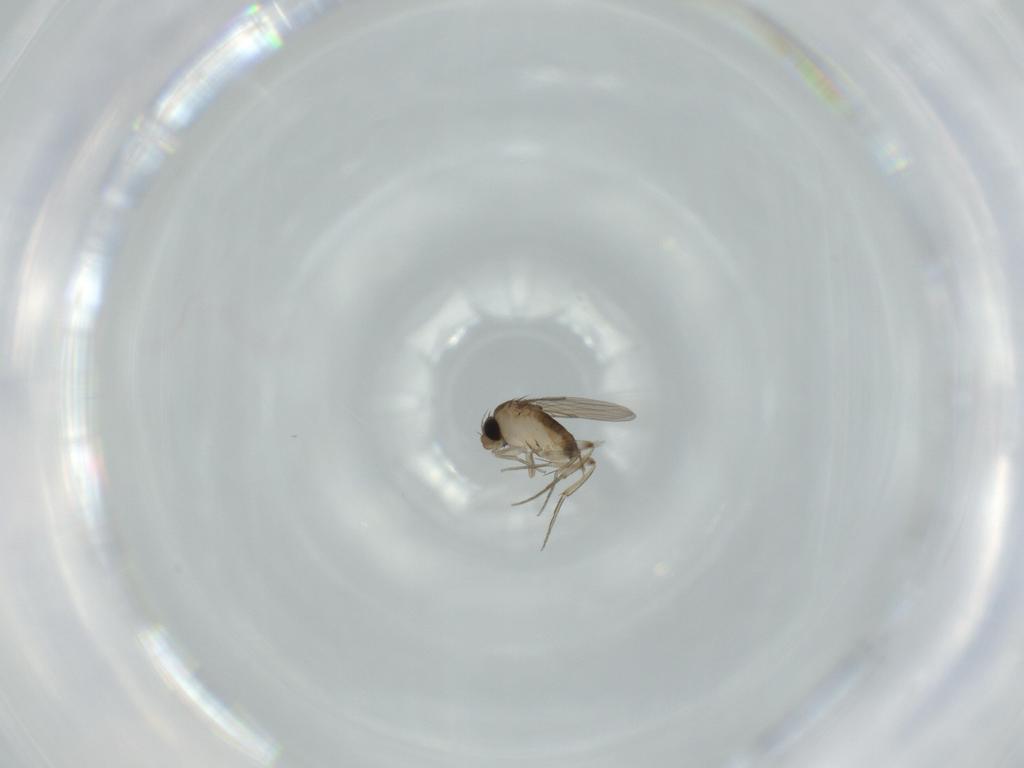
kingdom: Animalia
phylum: Arthropoda
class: Insecta
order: Diptera
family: Phoridae
